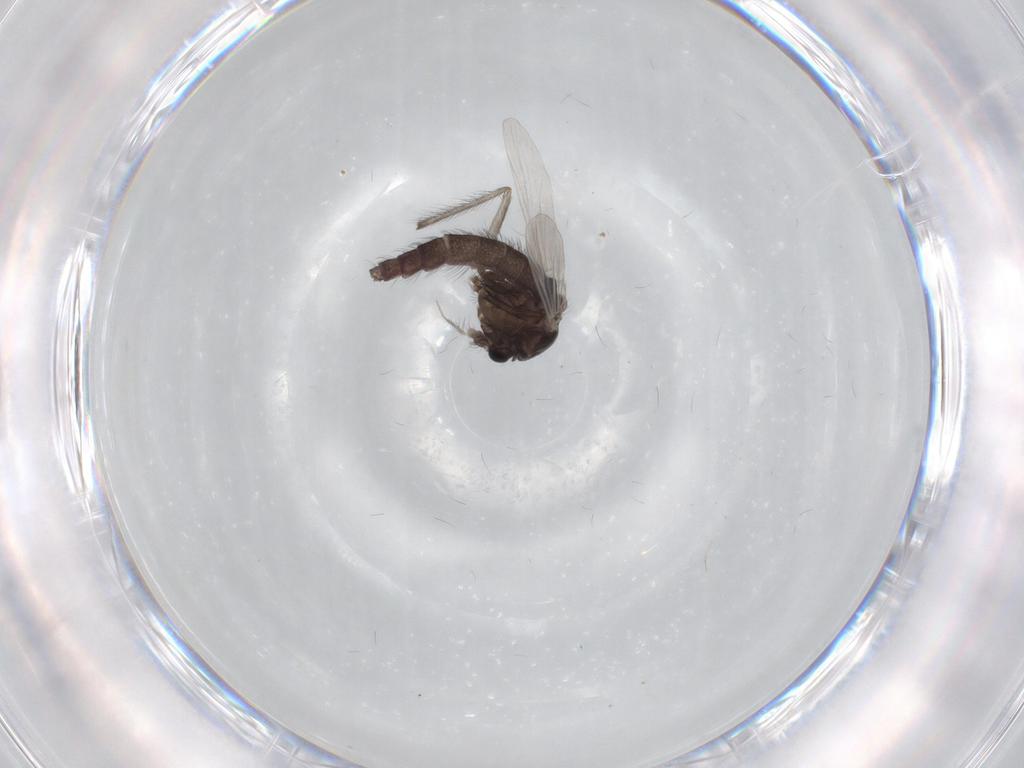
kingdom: Animalia
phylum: Arthropoda
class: Insecta
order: Diptera
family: Chironomidae
